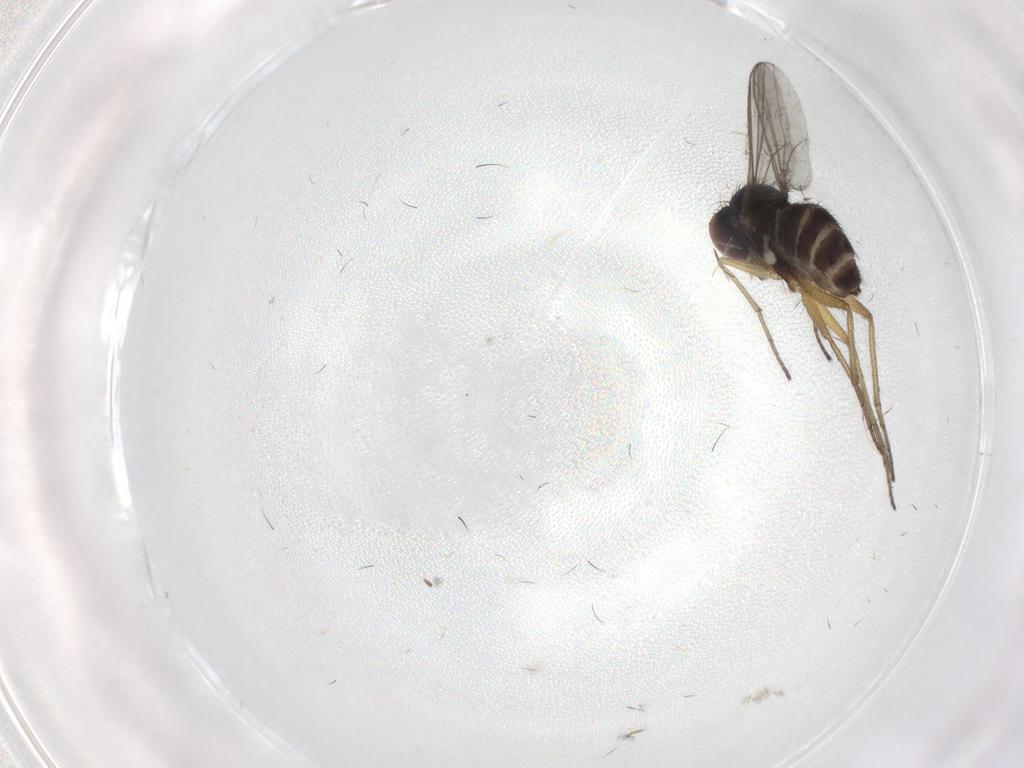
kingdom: Animalia
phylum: Arthropoda
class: Insecta
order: Diptera
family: Dolichopodidae
